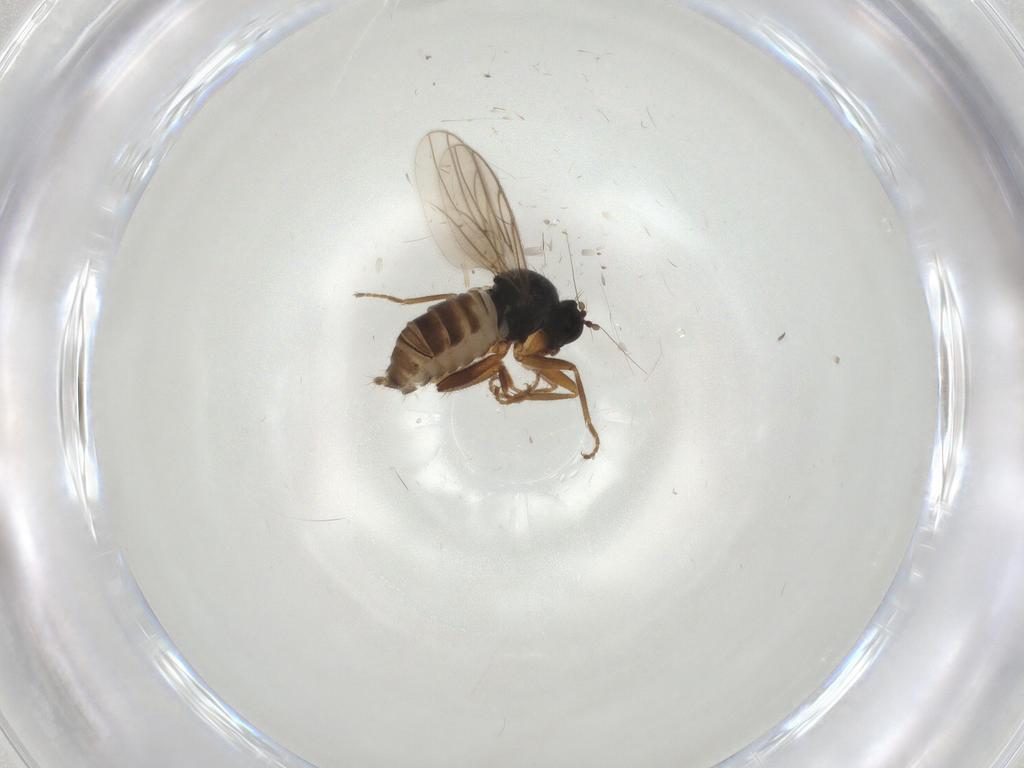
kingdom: Animalia
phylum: Arthropoda
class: Insecta
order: Diptera
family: Hybotidae
